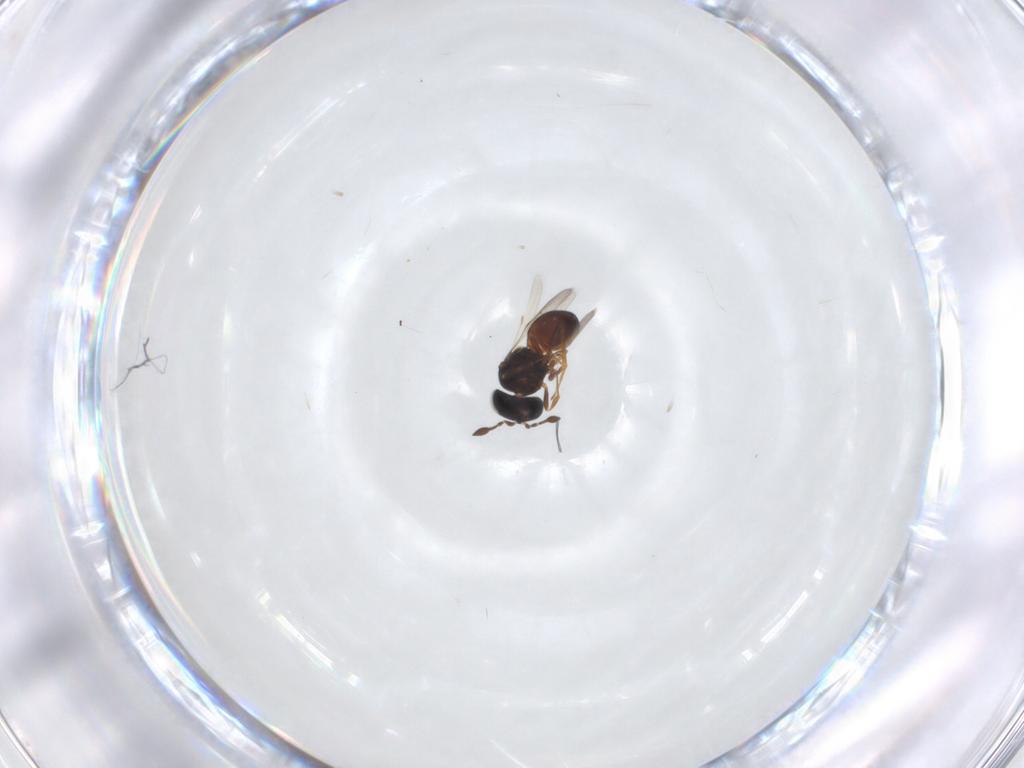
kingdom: Animalia
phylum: Arthropoda
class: Insecta
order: Hymenoptera
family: Scelionidae
